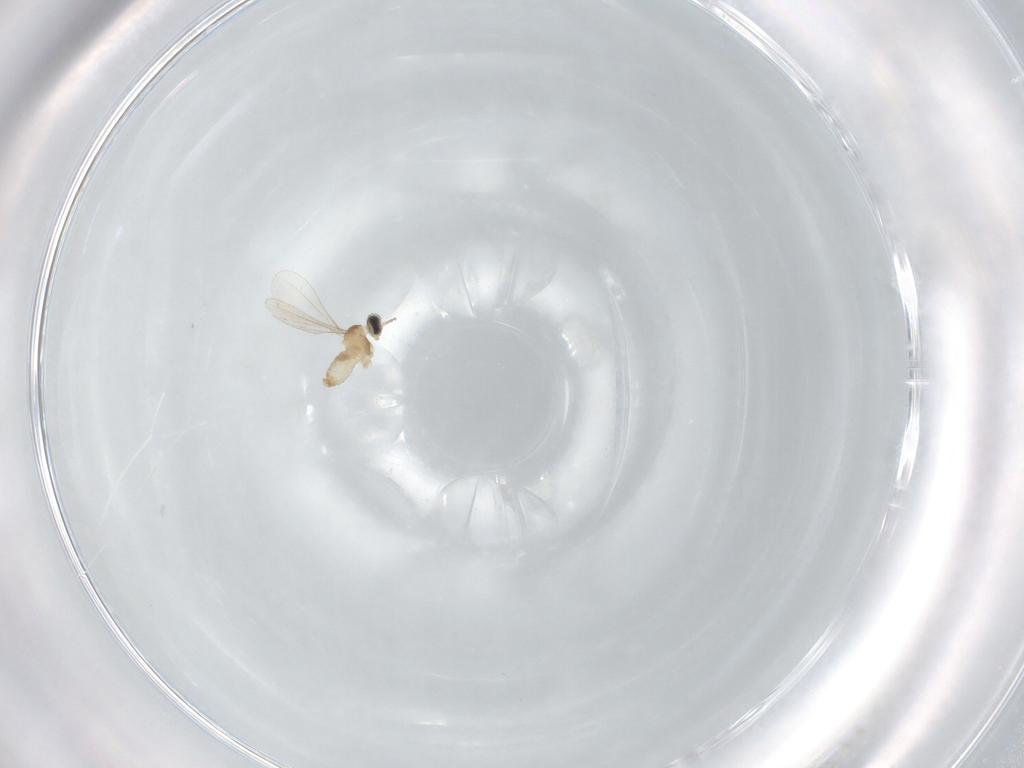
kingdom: Animalia
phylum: Arthropoda
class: Insecta
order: Diptera
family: Cecidomyiidae
